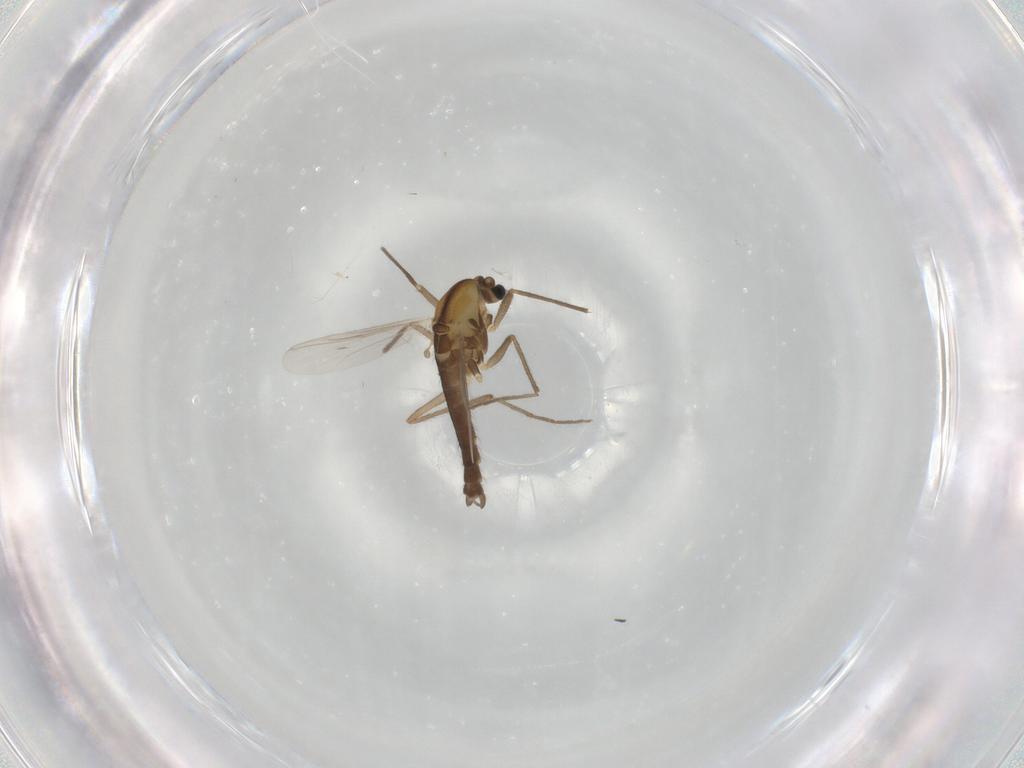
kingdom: Animalia
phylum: Arthropoda
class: Insecta
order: Diptera
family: Chironomidae
